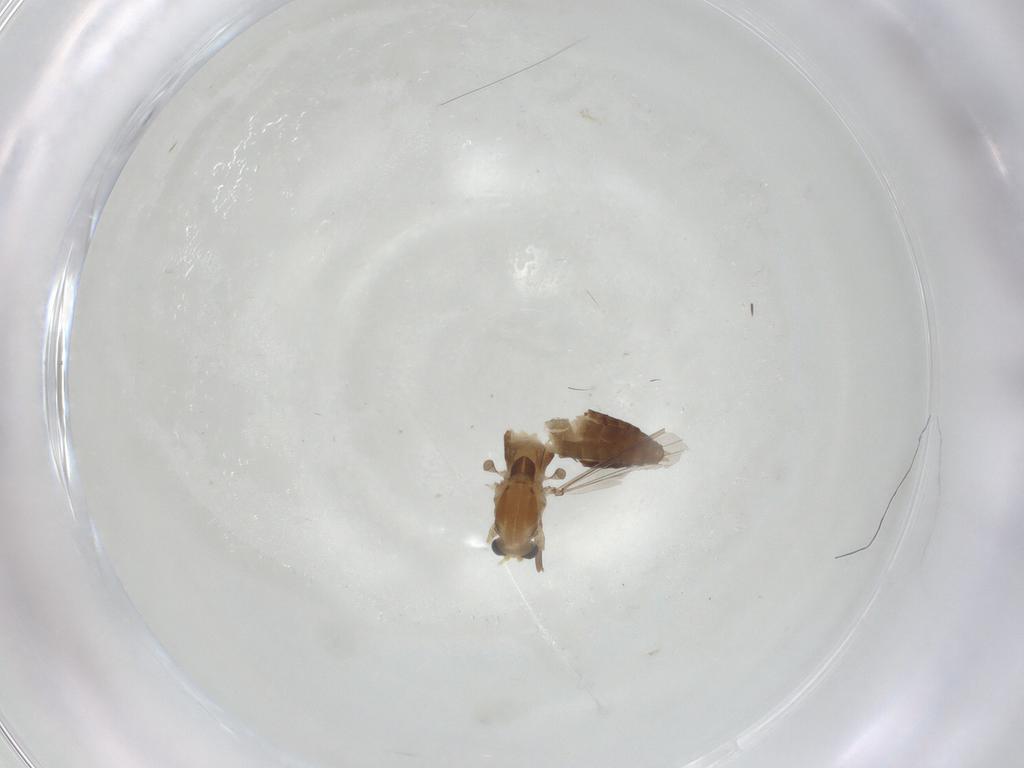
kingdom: Animalia
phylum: Arthropoda
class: Insecta
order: Diptera
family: Chironomidae
